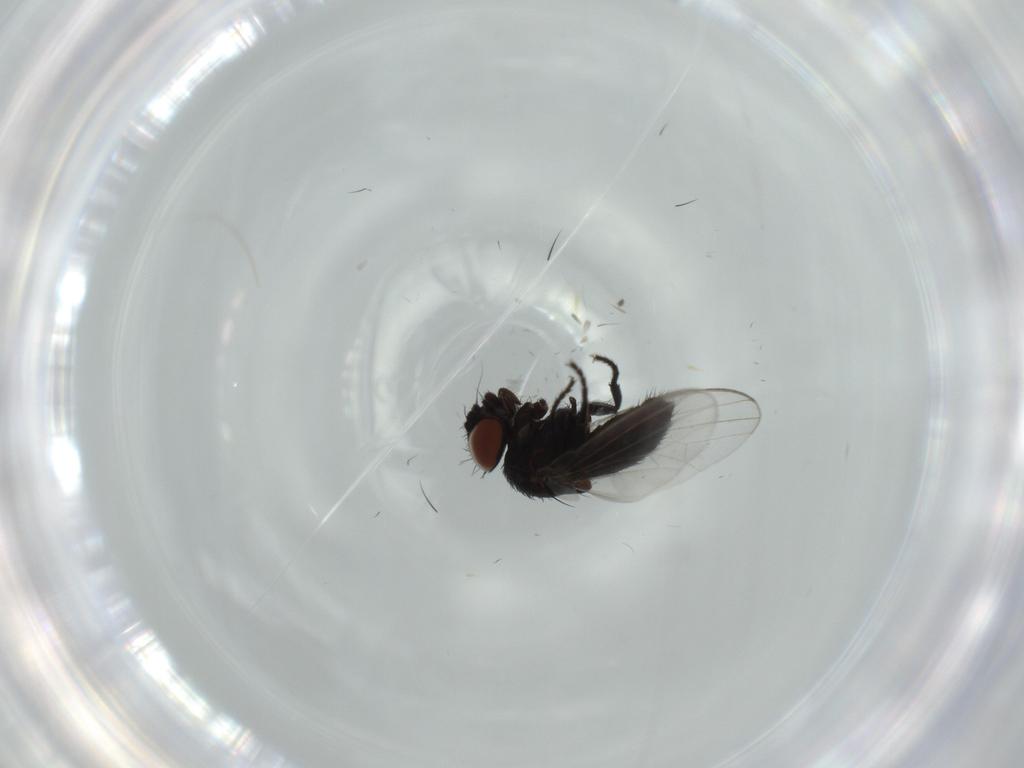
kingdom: Animalia
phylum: Arthropoda
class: Insecta
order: Diptera
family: Milichiidae
